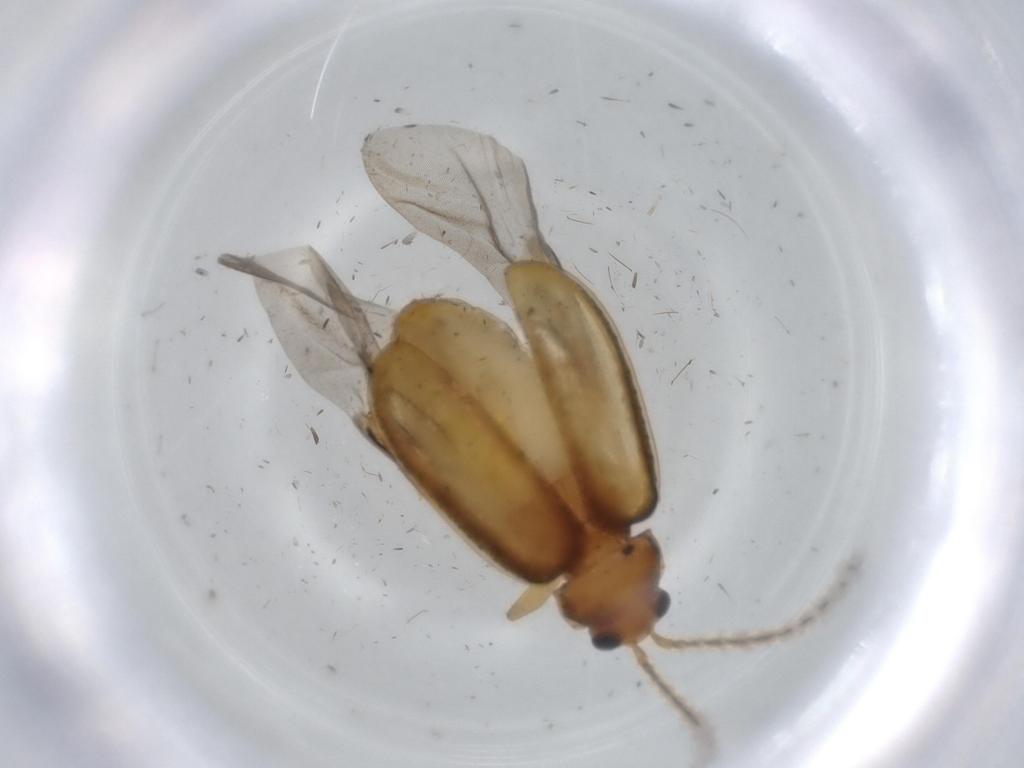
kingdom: Animalia
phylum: Arthropoda
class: Insecta
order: Coleoptera
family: Chrysomelidae
